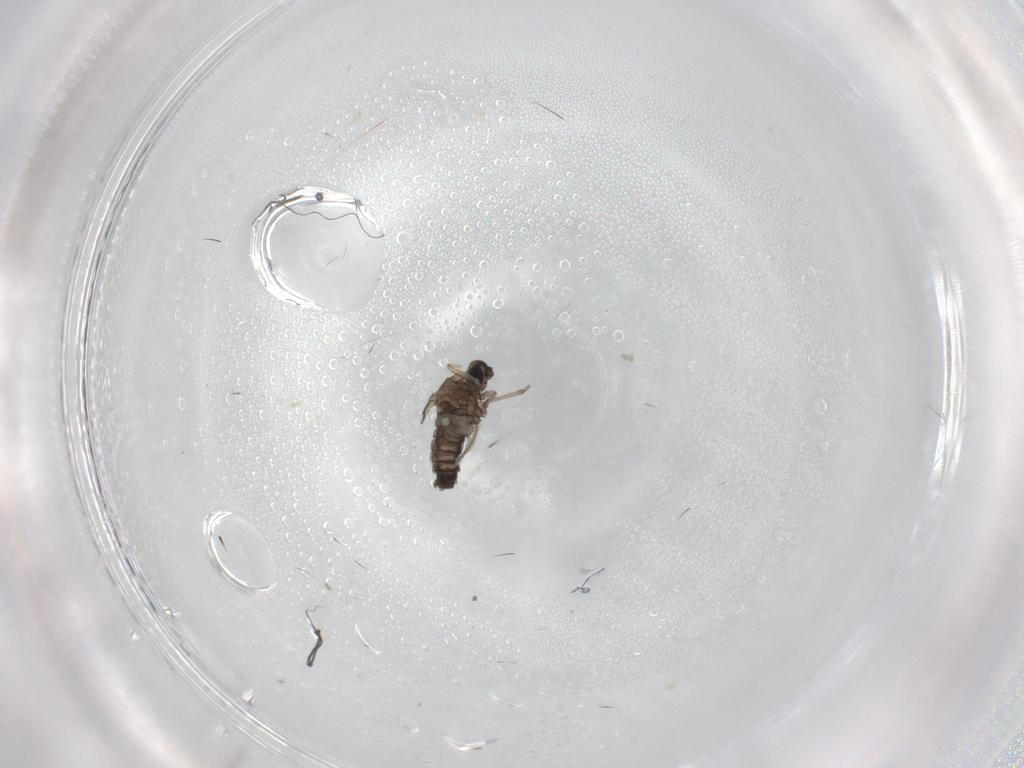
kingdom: Animalia
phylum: Arthropoda
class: Insecta
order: Diptera
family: Cecidomyiidae
